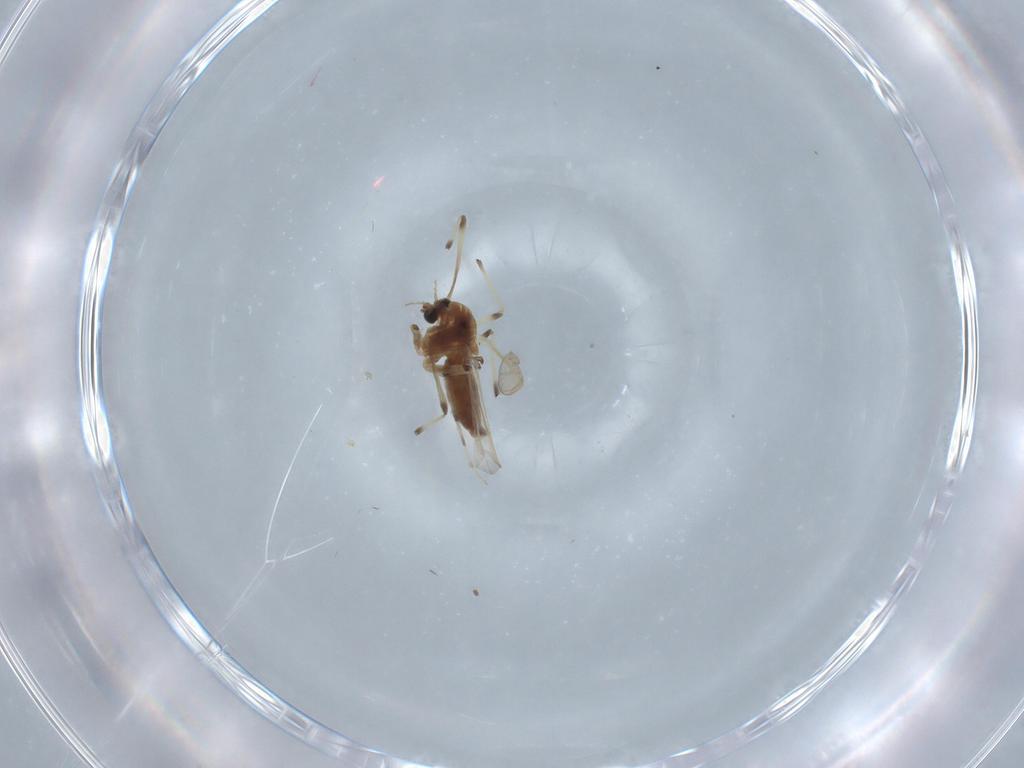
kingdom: Animalia
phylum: Arthropoda
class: Insecta
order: Diptera
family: Chironomidae
